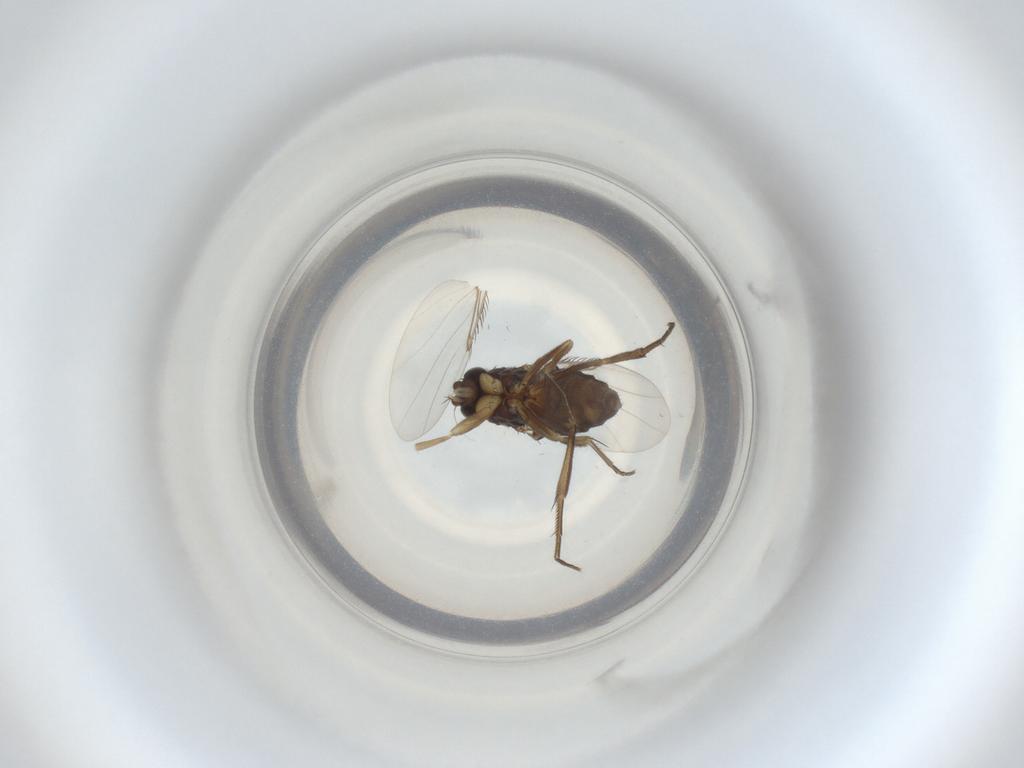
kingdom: Animalia
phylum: Arthropoda
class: Insecta
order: Diptera
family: Phoridae
